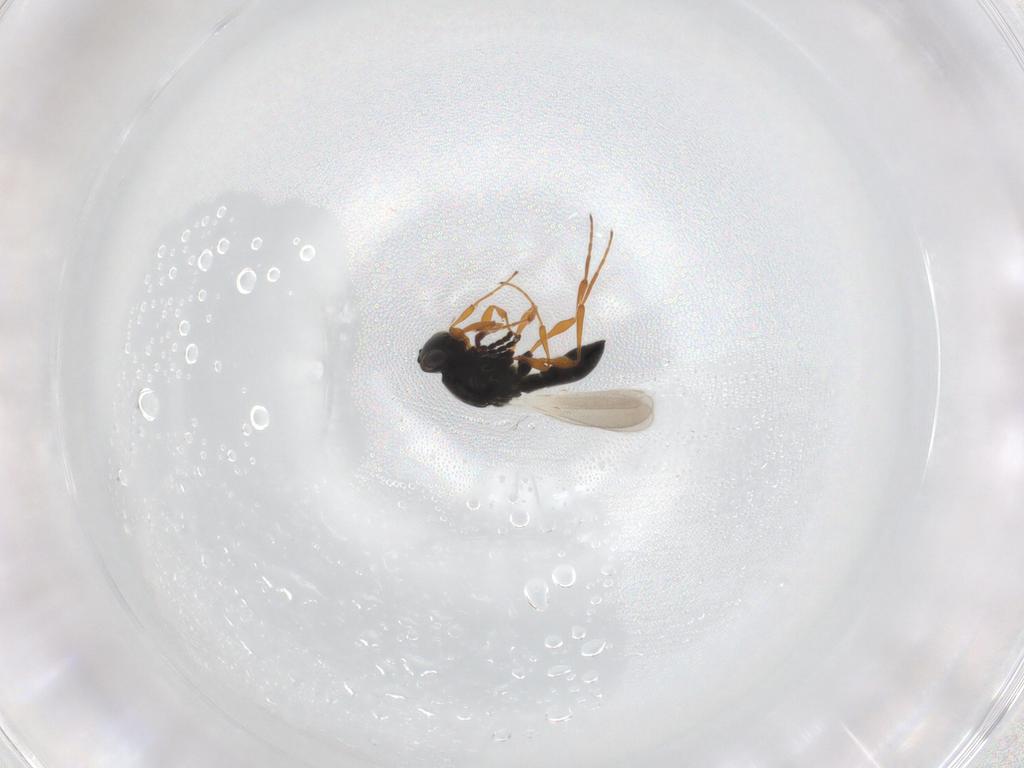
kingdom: Animalia
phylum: Arthropoda
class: Insecta
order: Hymenoptera
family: Platygastridae
